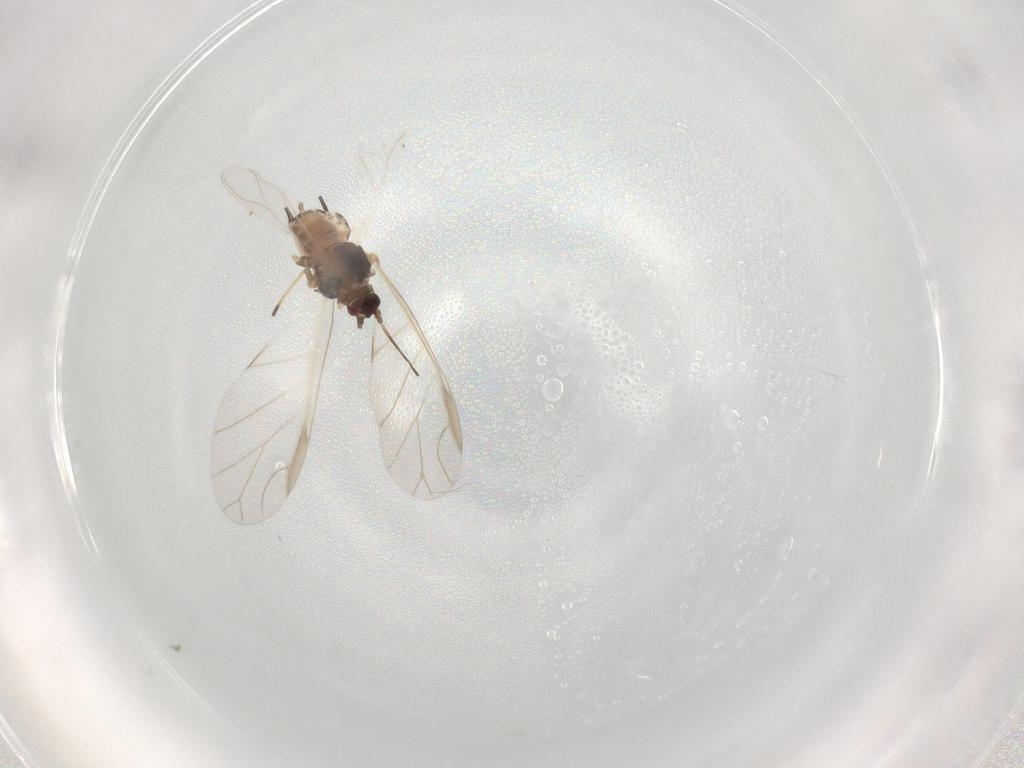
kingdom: Animalia
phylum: Arthropoda
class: Insecta
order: Hemiptera
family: Aphididae
